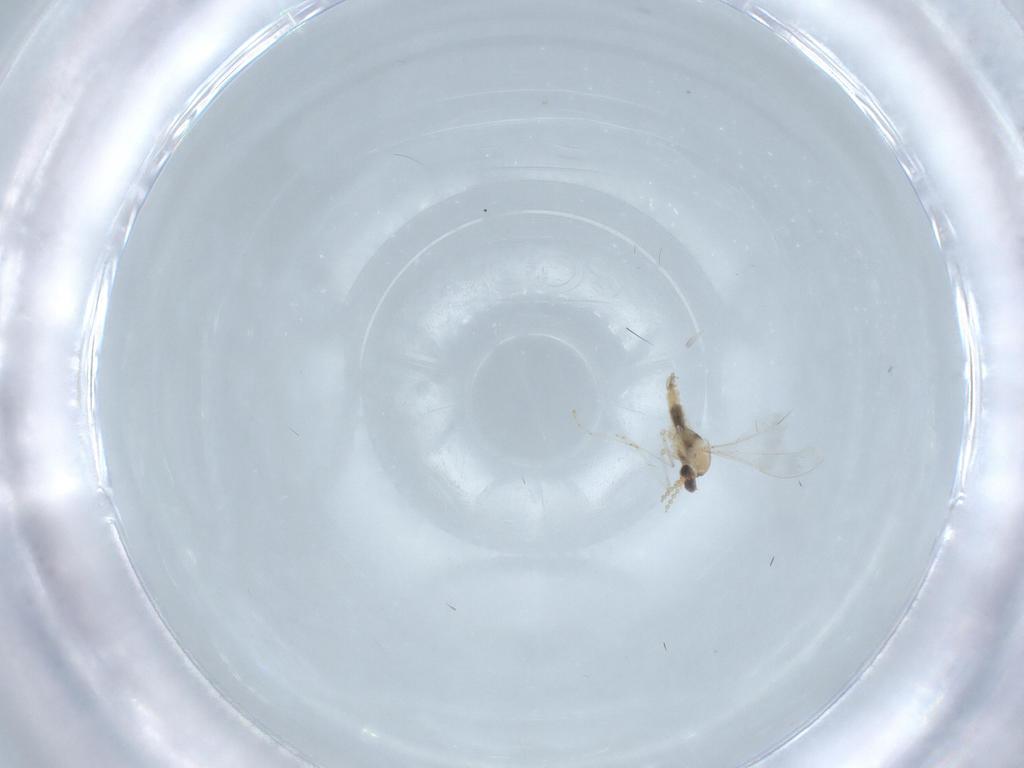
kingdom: Animalia
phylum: Arthropoda
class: Insecta
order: Diptera
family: Cecidomyiidae
